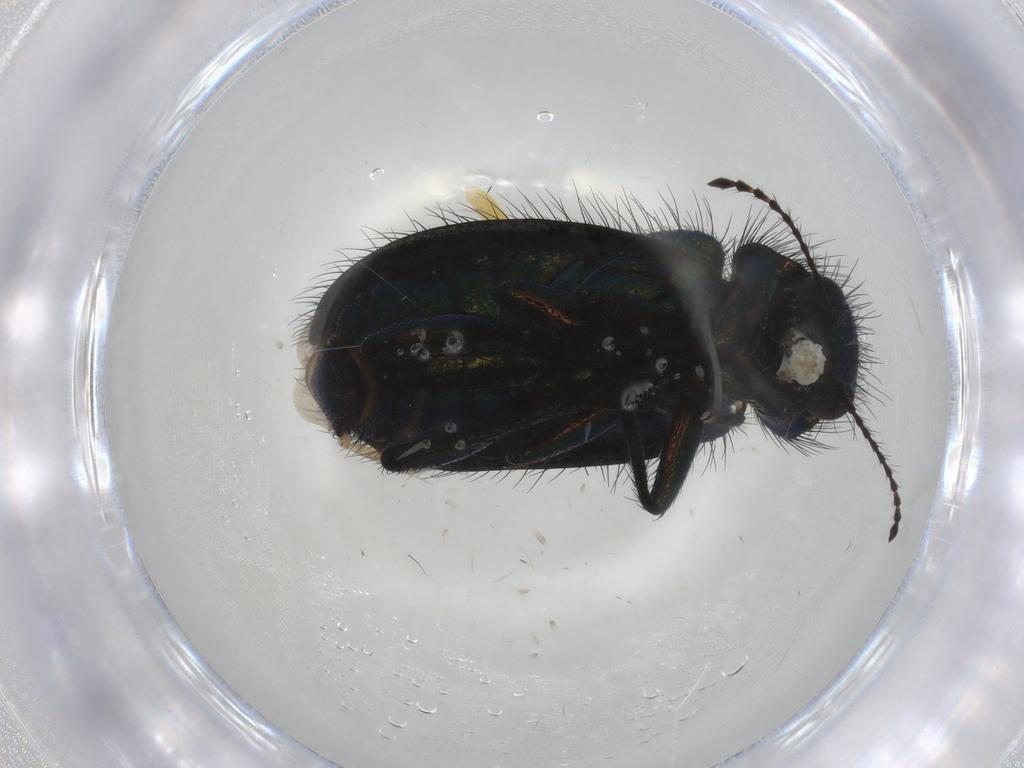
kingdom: Animalia
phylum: Arthropoda
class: Insecta
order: Coleoptera
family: Melyridae
